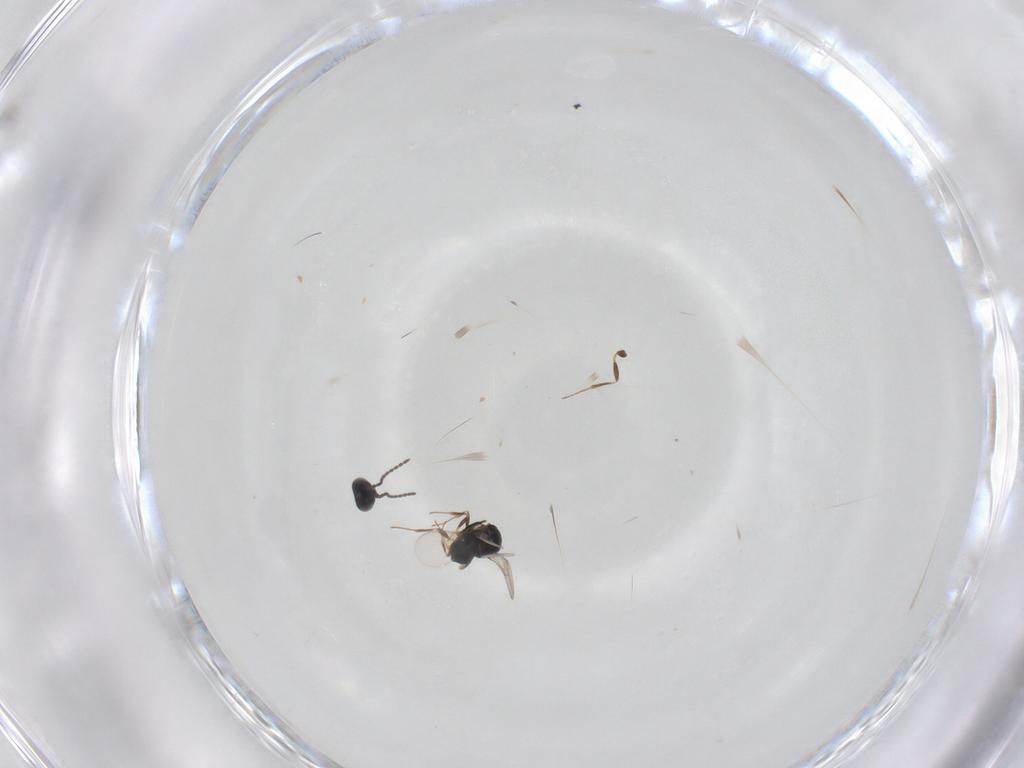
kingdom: Animalia
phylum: Arthropoda
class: Insecta
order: Hymenoptera
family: Scelionidae
